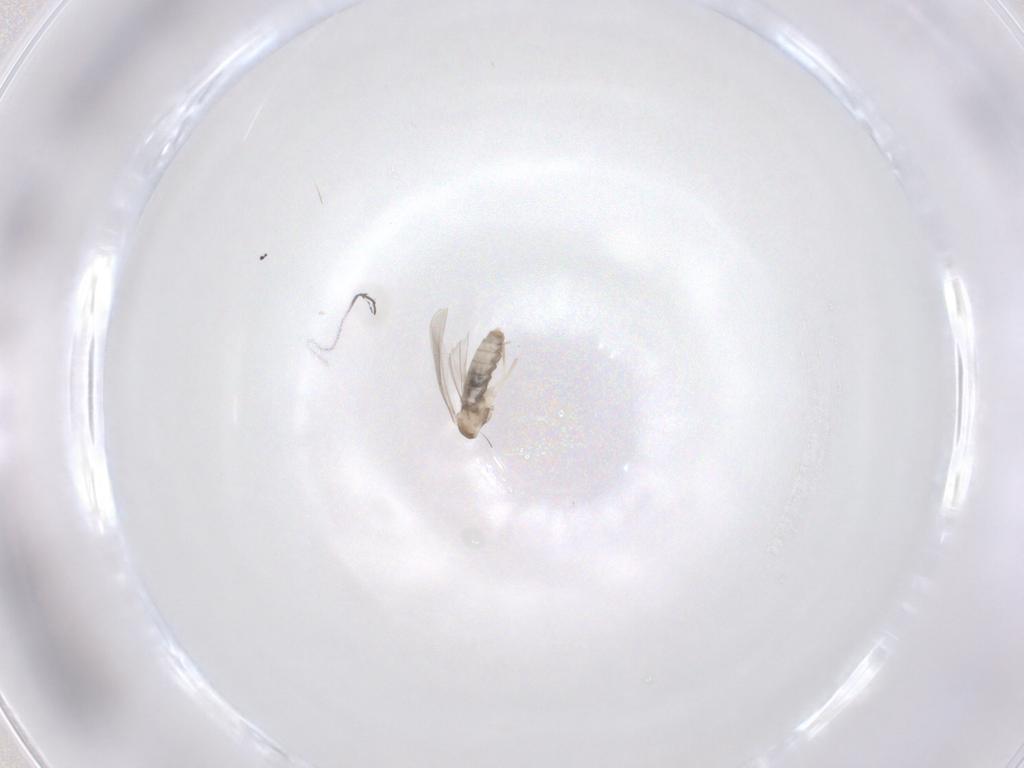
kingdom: Animalia
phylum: Arthropoda
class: Insecta
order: Diptera
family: Cecidomyiidae
